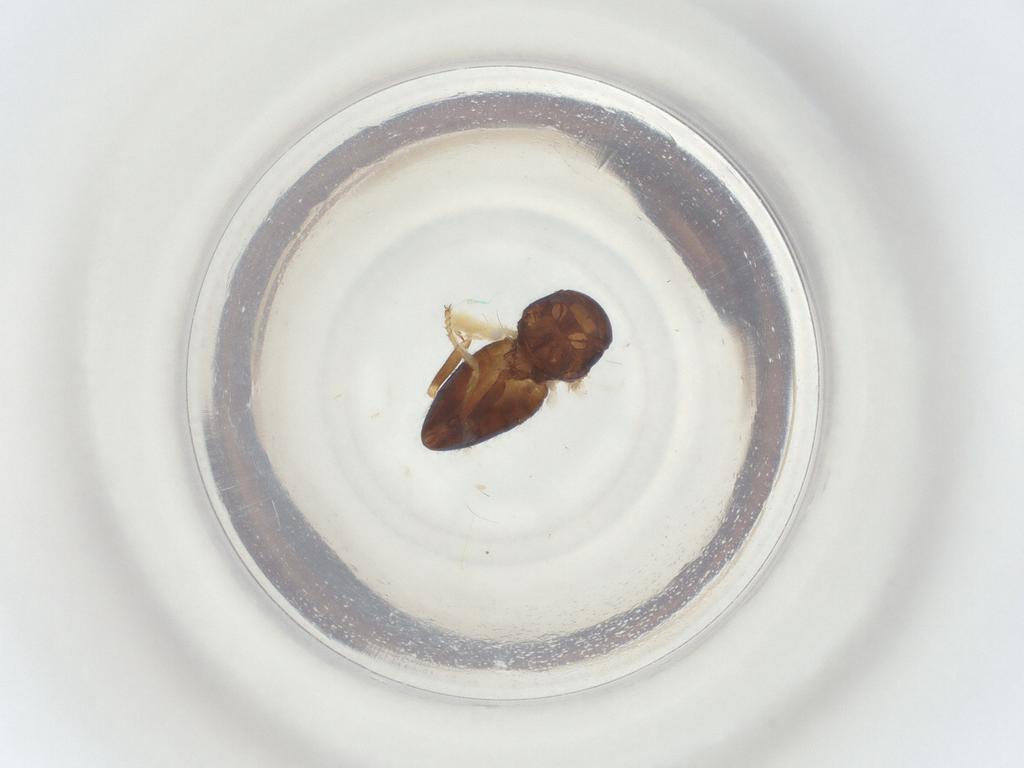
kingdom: Animalia
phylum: Arthropoda
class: Insecta
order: Diptera
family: Ephydridae
